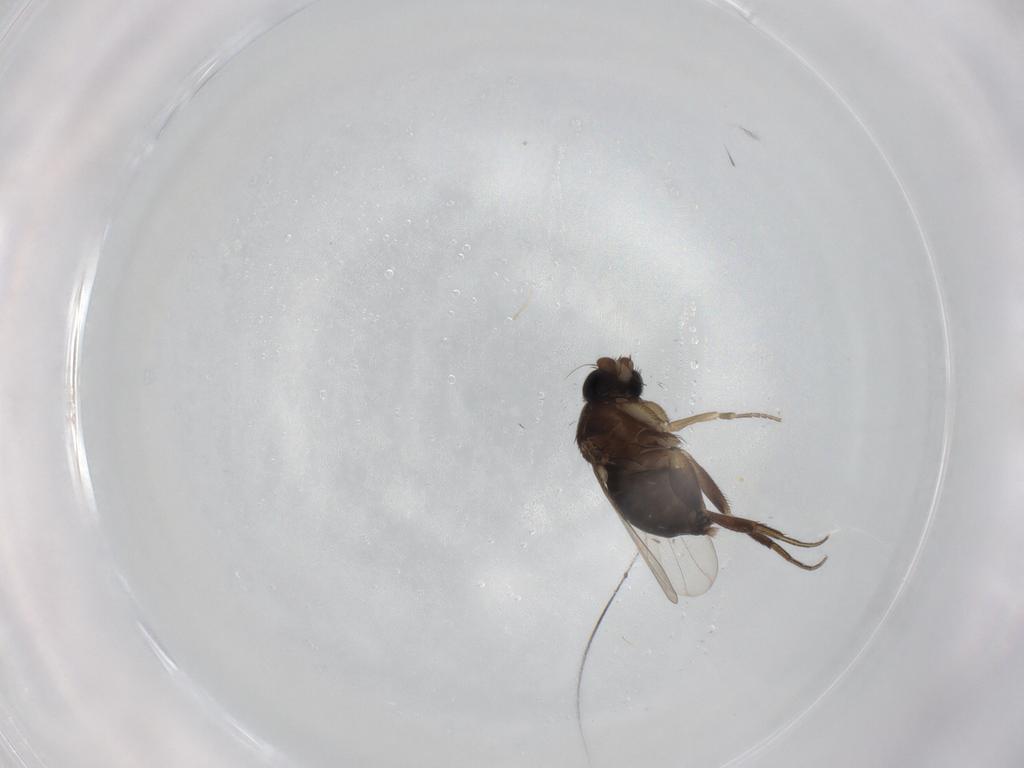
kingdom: Animalia
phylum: Arthropoda
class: Insecta
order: Diptera
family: Phoridae
